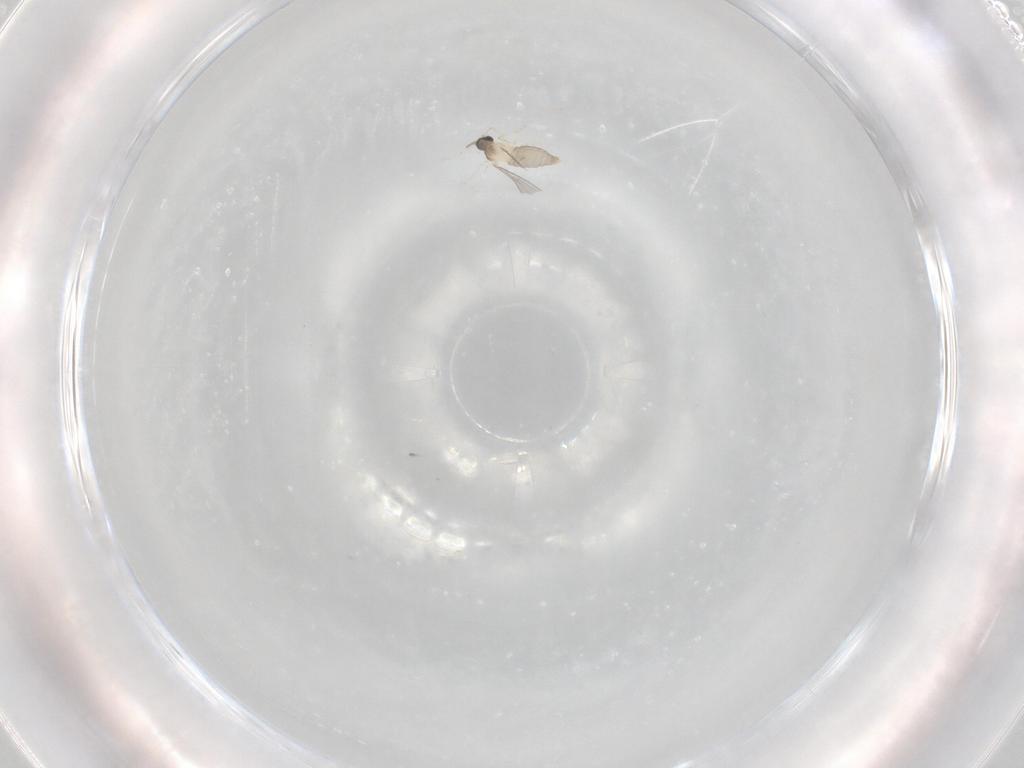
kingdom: Animalia
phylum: Arthropoda
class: Insecta
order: Diptera
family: Cecidomyiidae
